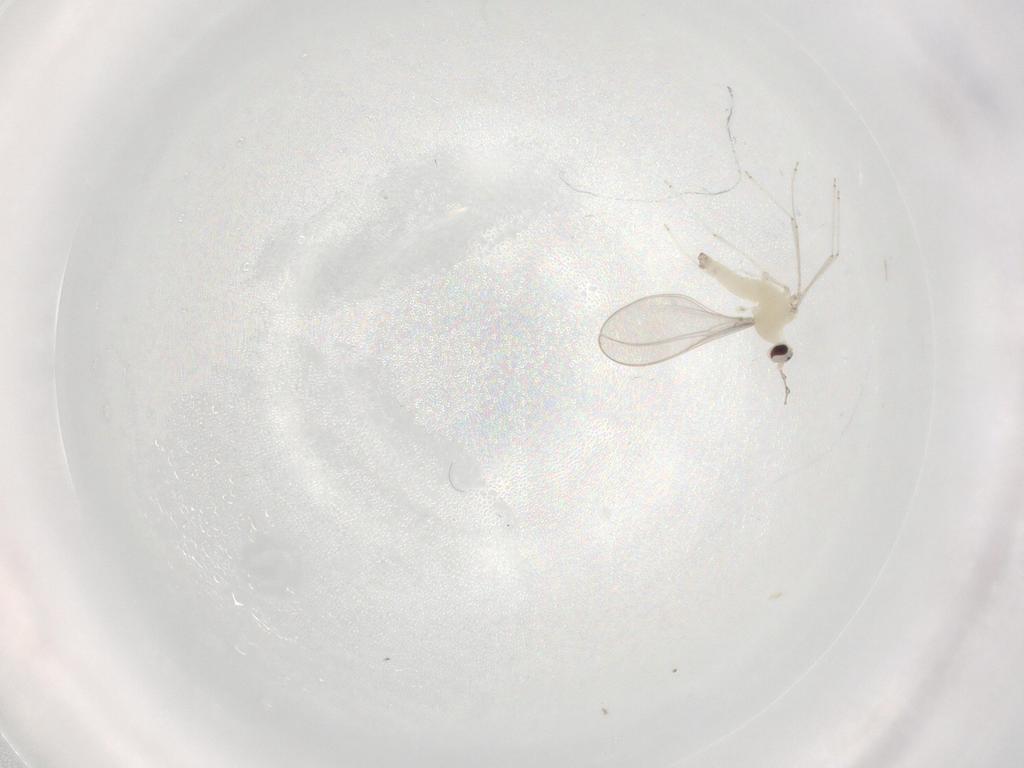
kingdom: Animalia
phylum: Arthropoda
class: Insecta
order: Diptera
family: Cecidomyiidae
